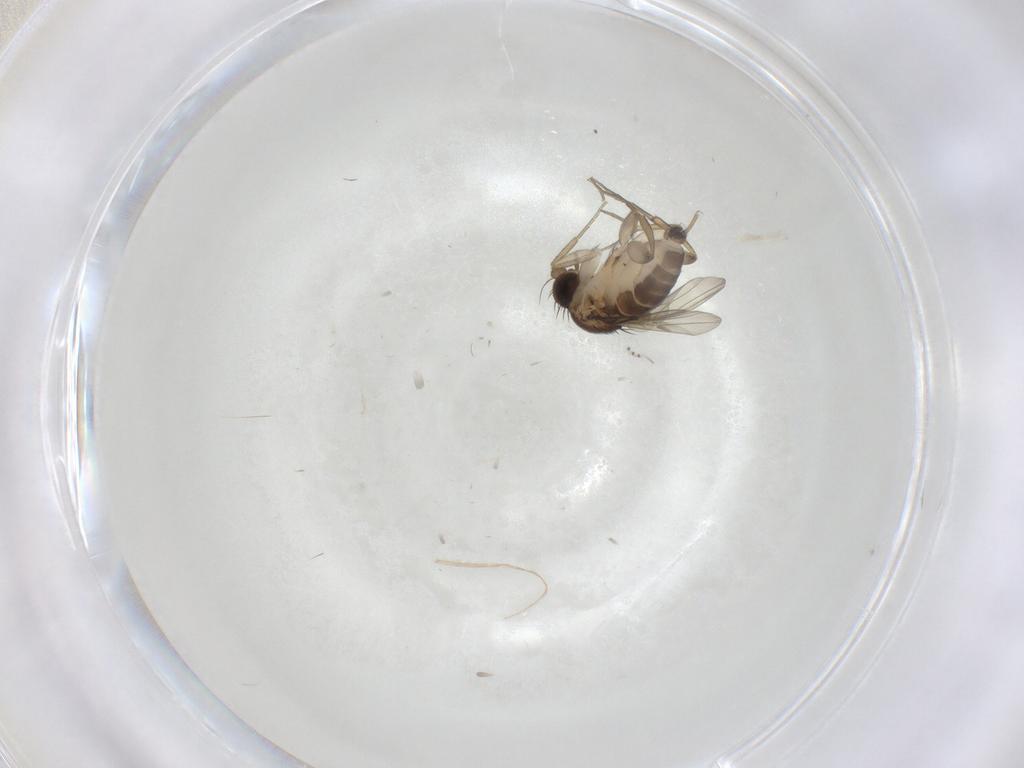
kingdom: Animalia
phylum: Arthropoda
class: Insecta
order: Diptera
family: Phoridae
